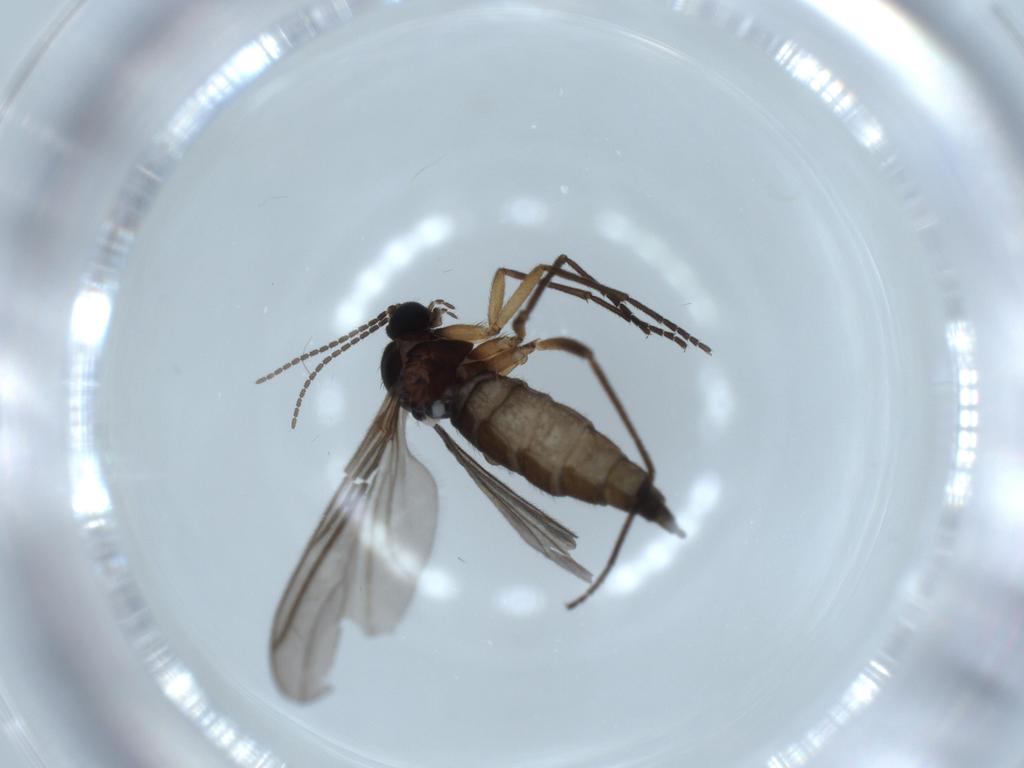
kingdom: Animalia
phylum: Arthropoda
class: Insecta
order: Diptera
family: Sciaridae
